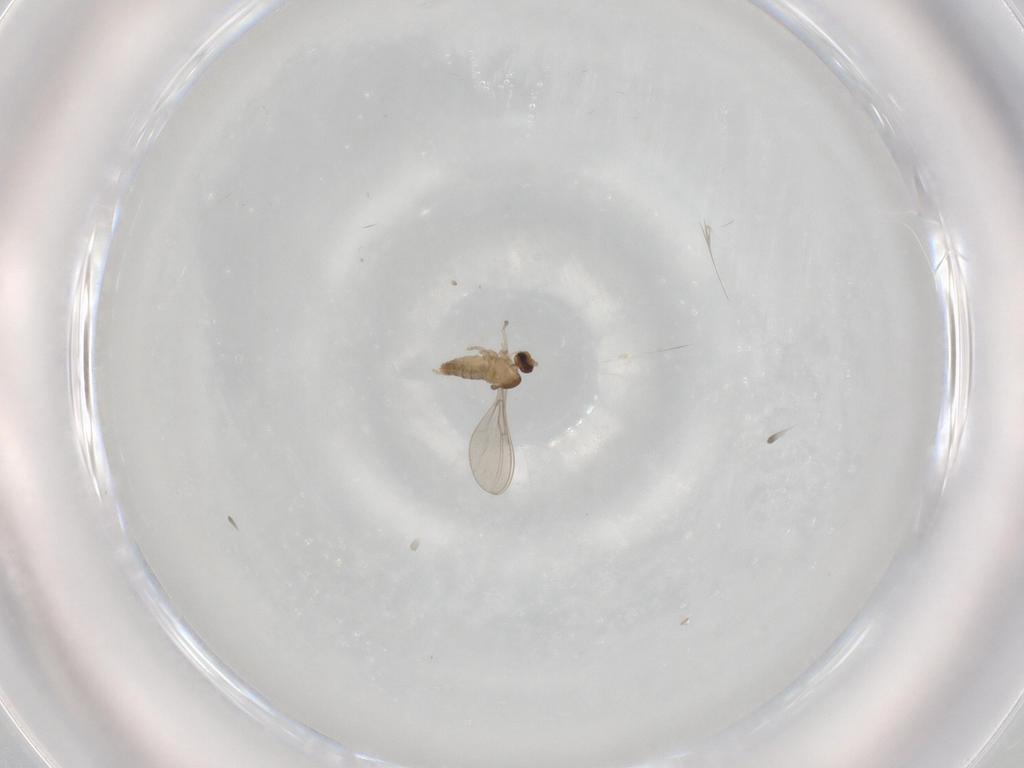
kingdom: Animalia
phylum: Arthropoda
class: Insecta
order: Diptera
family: Cecidomyiidae
